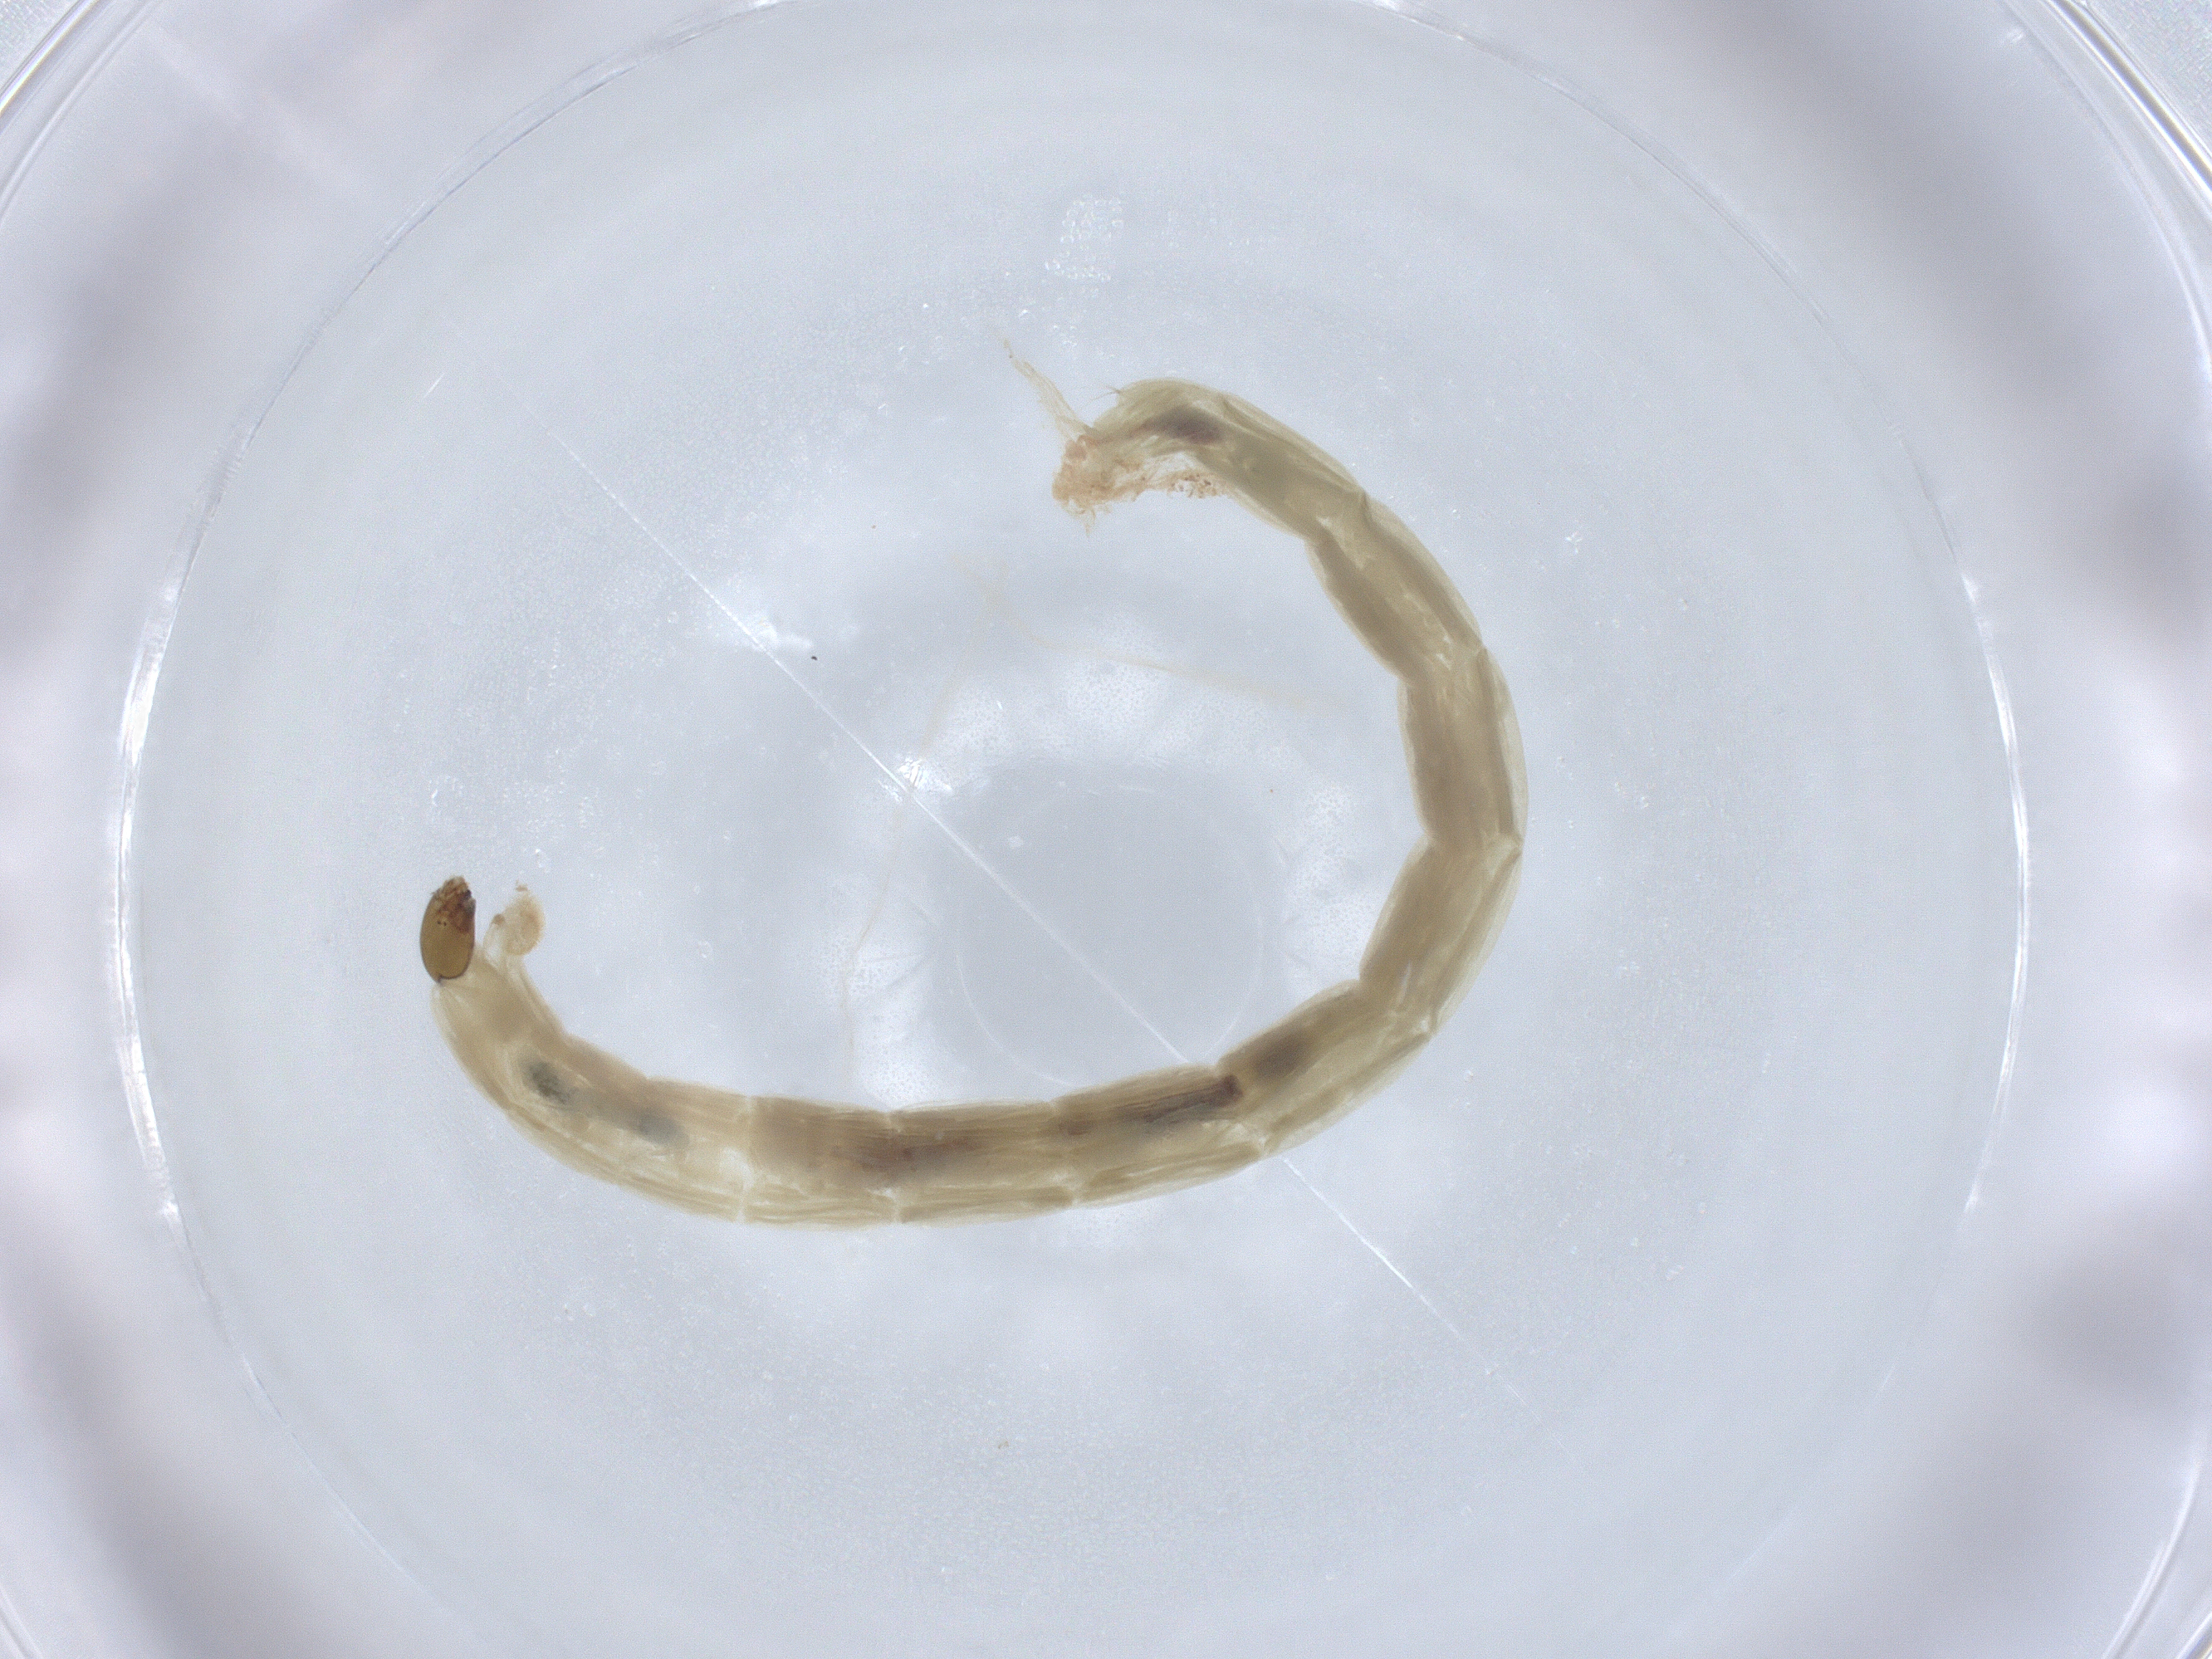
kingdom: Animalia
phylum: Arthropoda
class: Insecta
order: Diptera
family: Chironomidae
